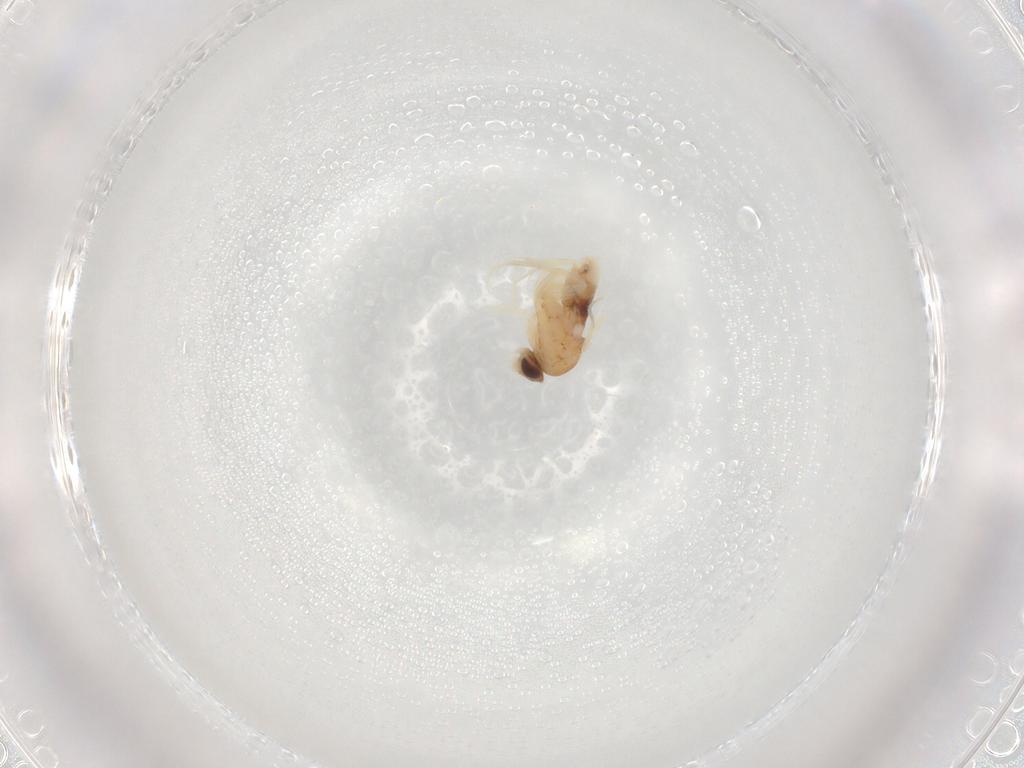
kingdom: Animalia
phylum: Arthropoda
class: Insecta
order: Diptera
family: Cecidomyiidae
